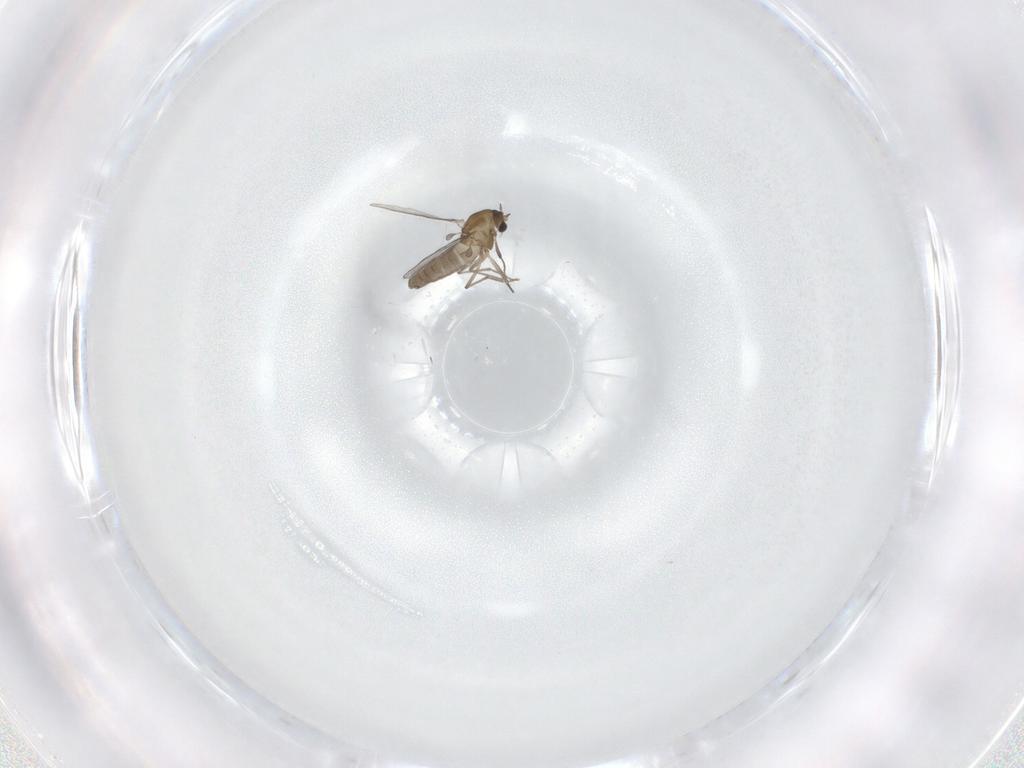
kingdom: Animalia
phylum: Arthropoda
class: Insecta
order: Diptera
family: Chironomidae
